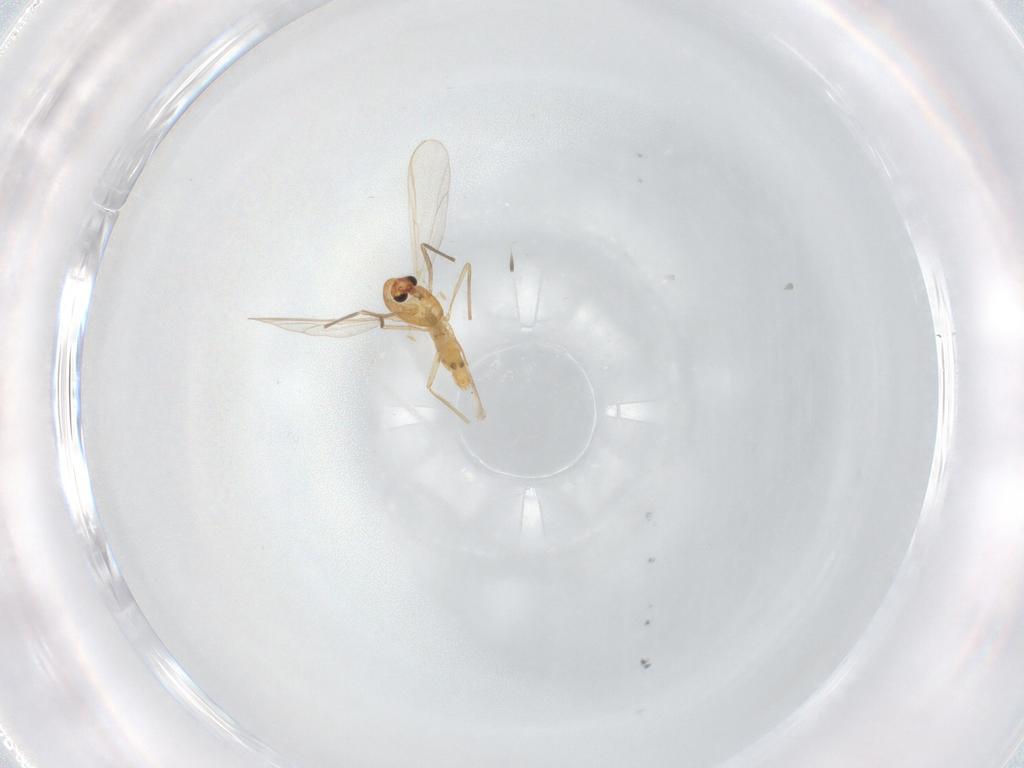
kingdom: Animalia
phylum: Arthropoda
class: Insecta
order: Diptera
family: Chironomidae
